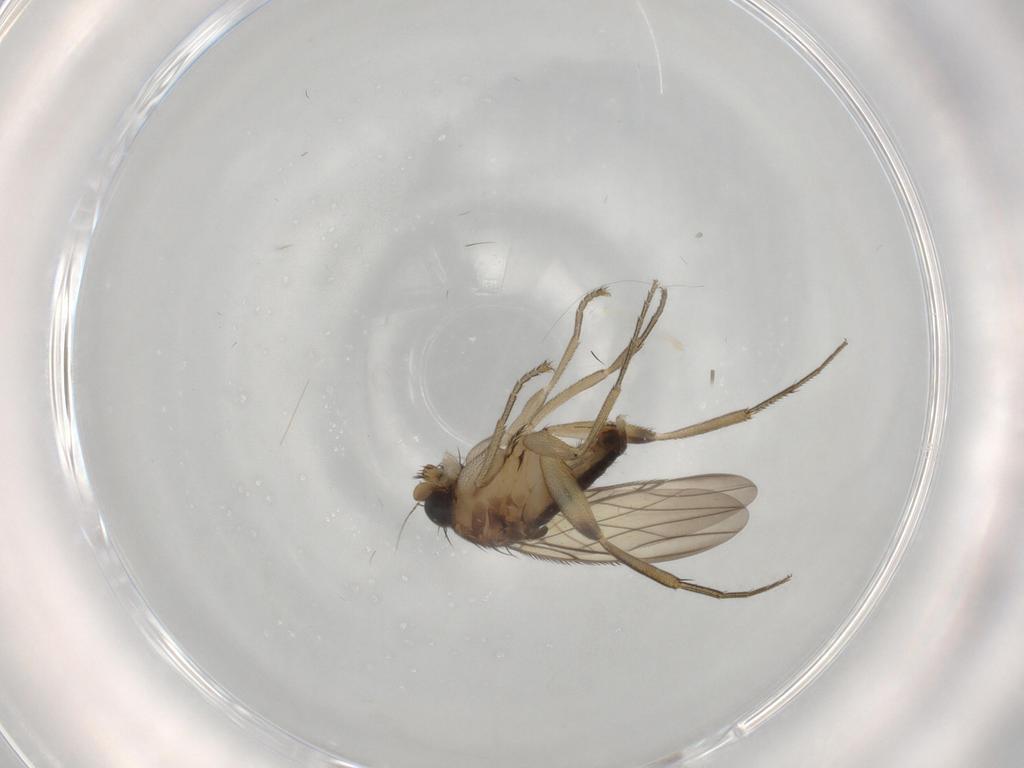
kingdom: Animalia
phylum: Arthropoda
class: Insecta
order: Diptera
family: Phoridae
